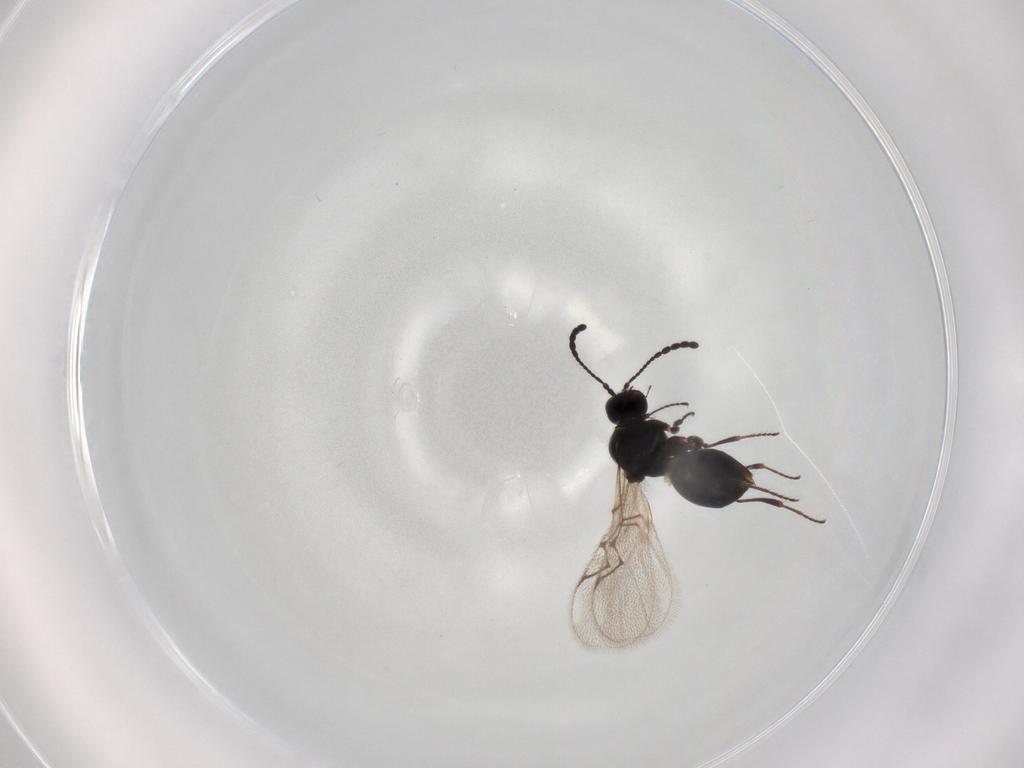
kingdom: Animalia
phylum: Arthropoda
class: Insecta
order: Hymenoptera
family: Figitidae
